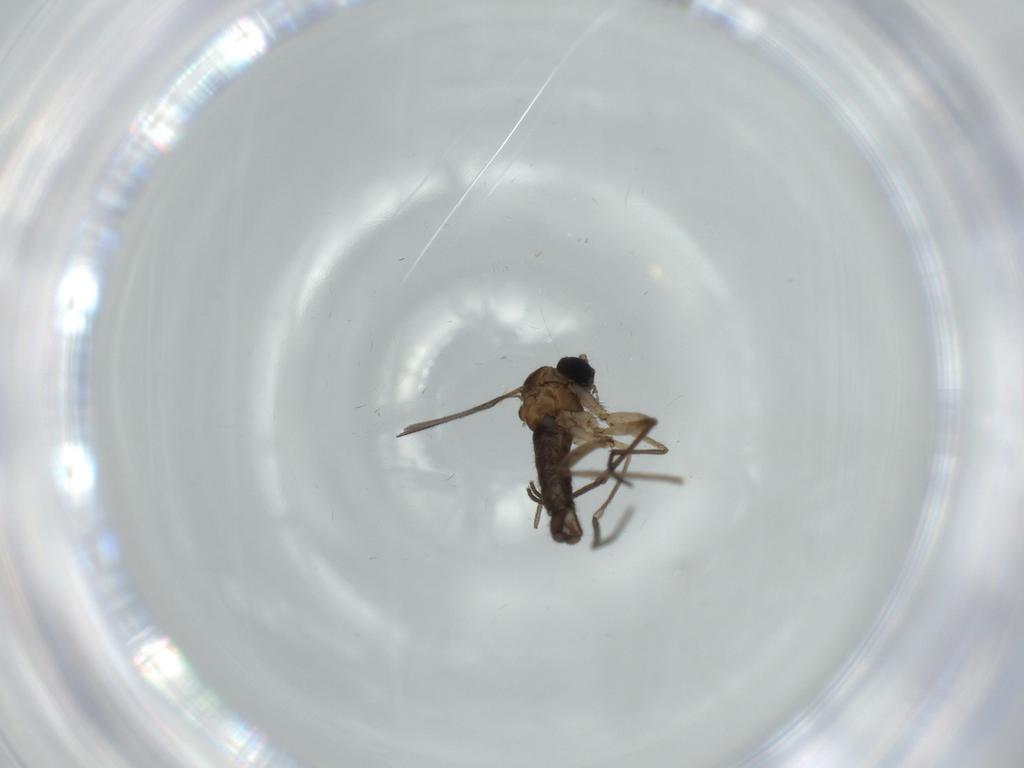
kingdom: Animalia
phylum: Arthropoda
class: Insecta
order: Diptera
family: Sciaridae
